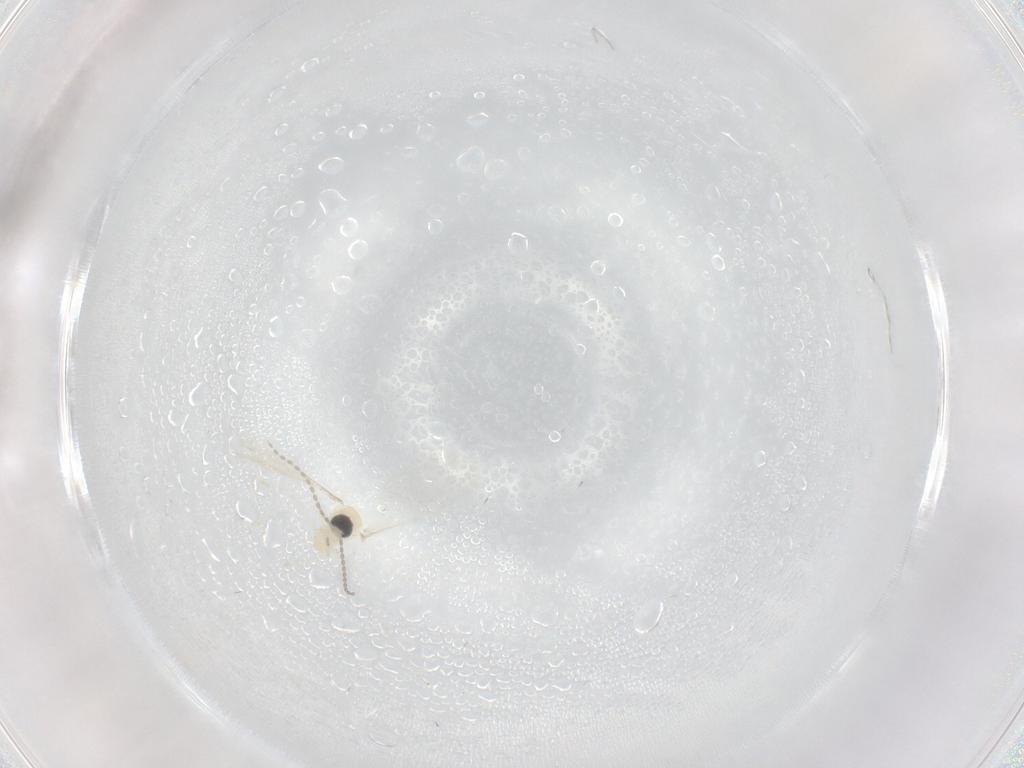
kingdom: Animalia
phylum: Arthropoda
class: Insecta
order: Diptera
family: Cecidomyiidae
